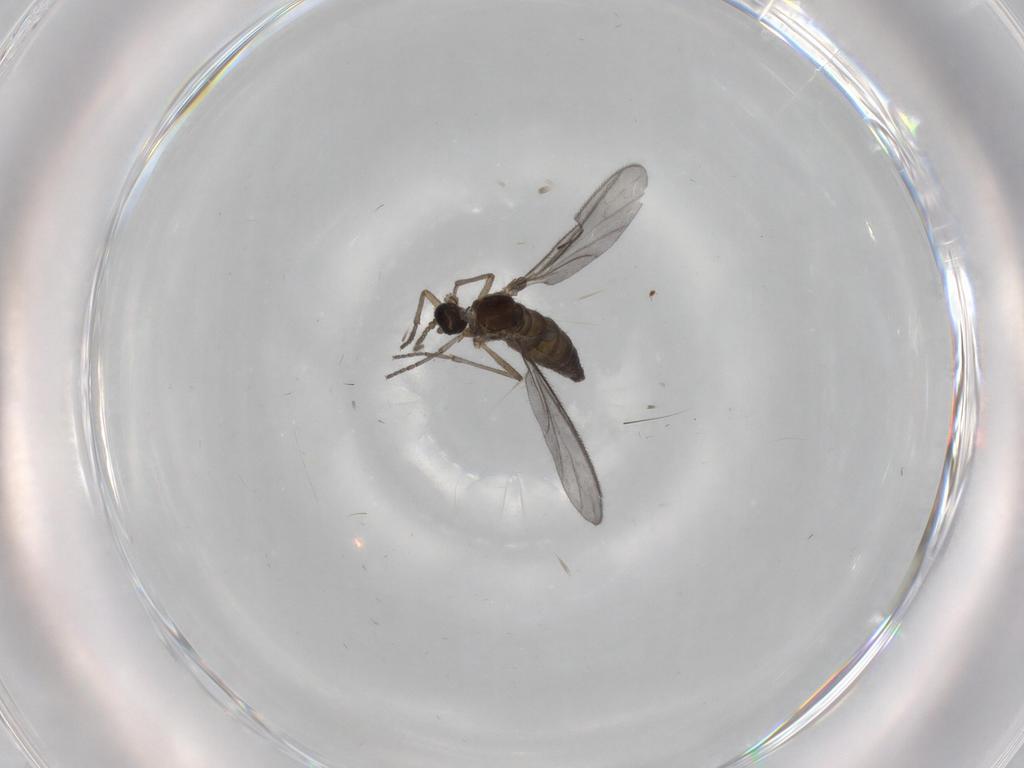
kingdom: Animalia
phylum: Arthropoda
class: Insecta
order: Diptera
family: Sciaridae
